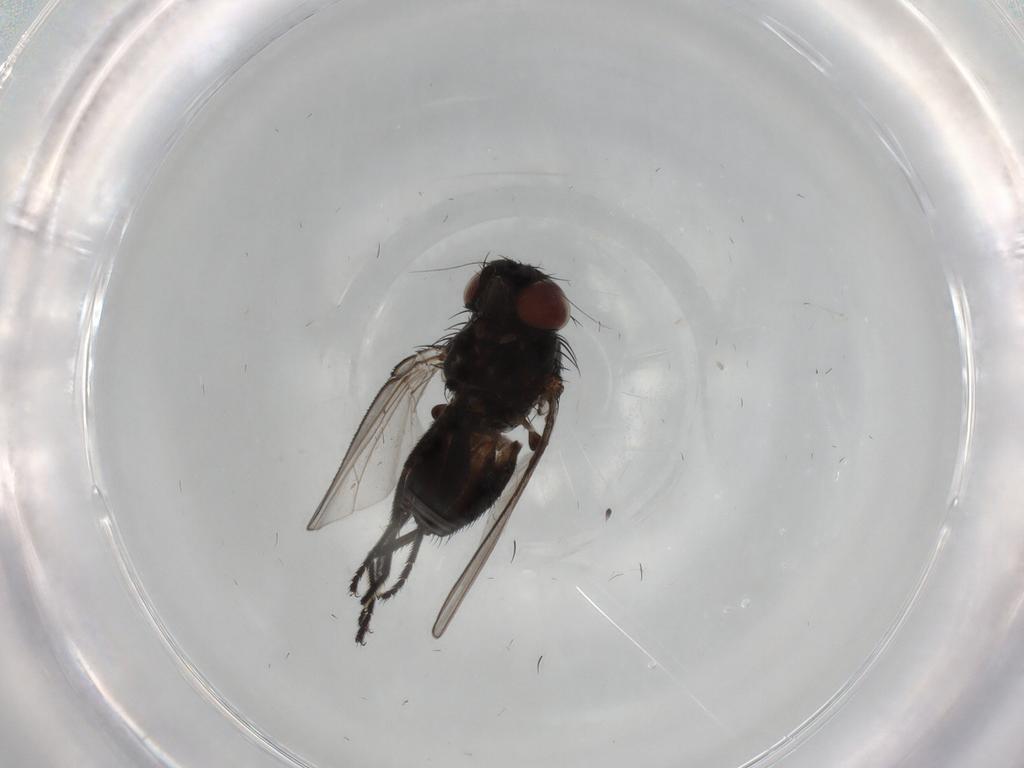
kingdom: Animalia
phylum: Arthropoda
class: Insecta
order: Diptera
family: Milichiidae
